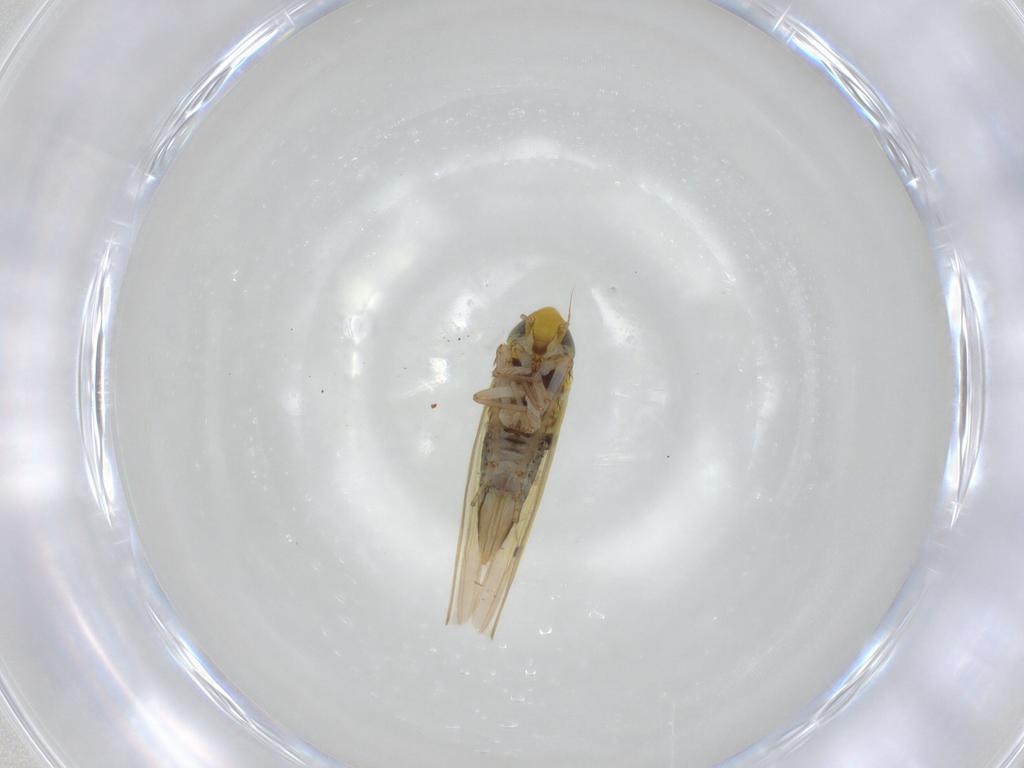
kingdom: Animalia
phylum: Arthropoda
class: Insecta
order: Hemiptera
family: Cicadellidae
